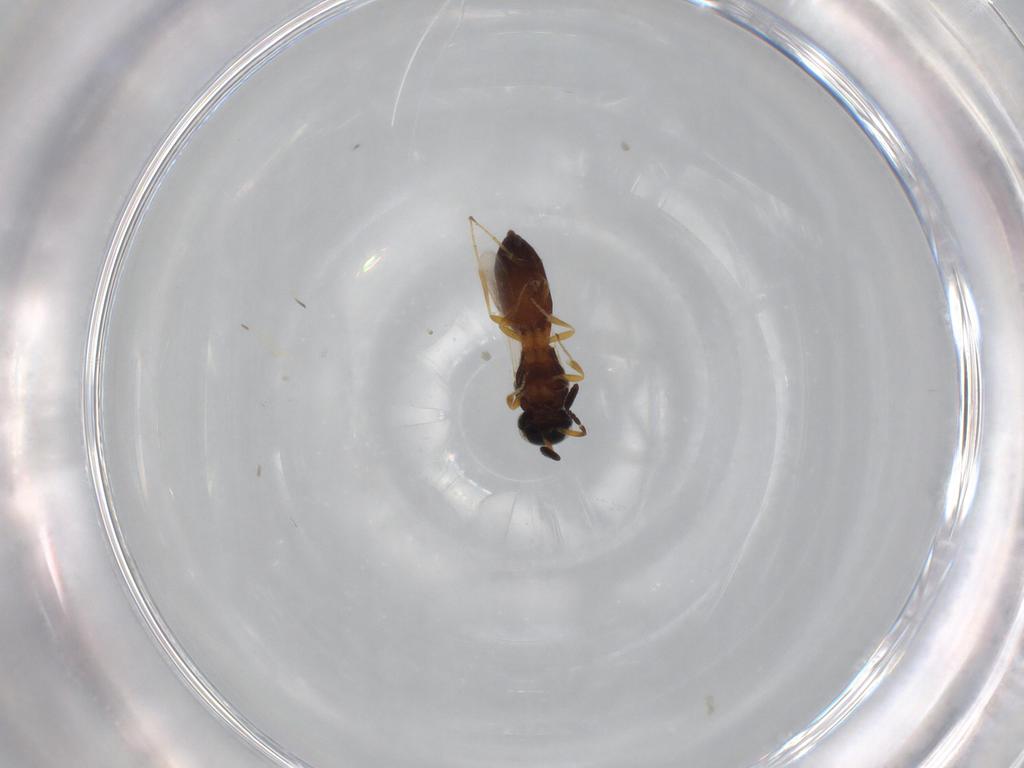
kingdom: Animalia
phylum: Arthropoda
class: Insecta
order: Hymenoptera
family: Scelionidae
